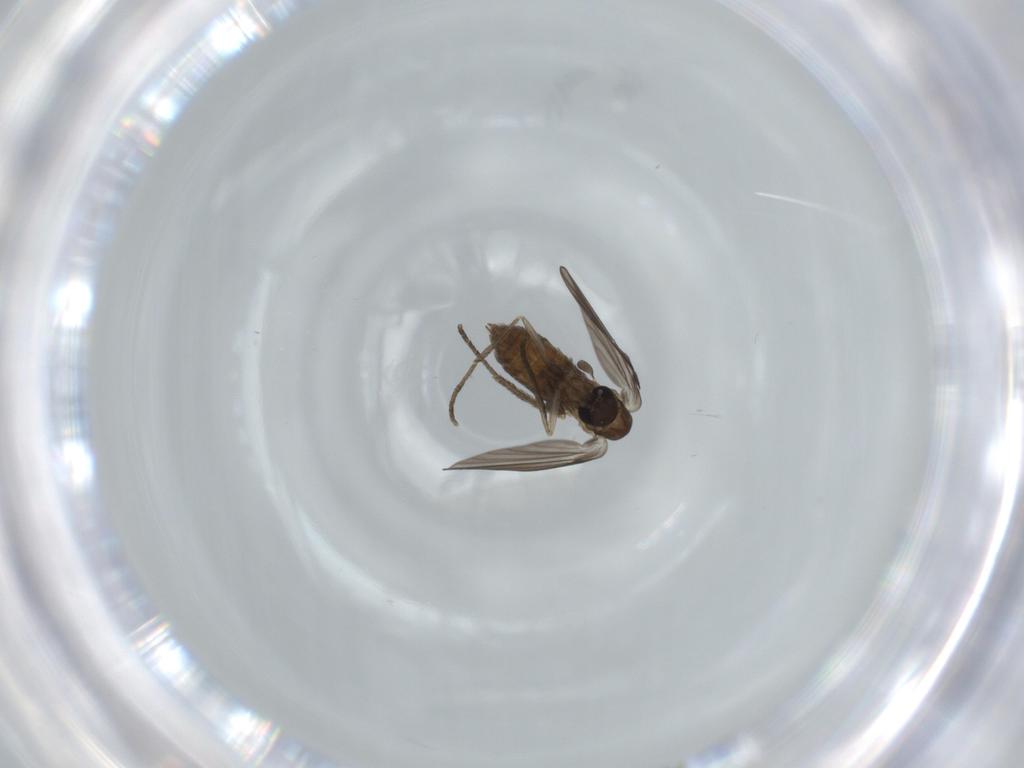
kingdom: Animalia
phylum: Arthropoda
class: Insecta
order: Diptera
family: Psychodidae
